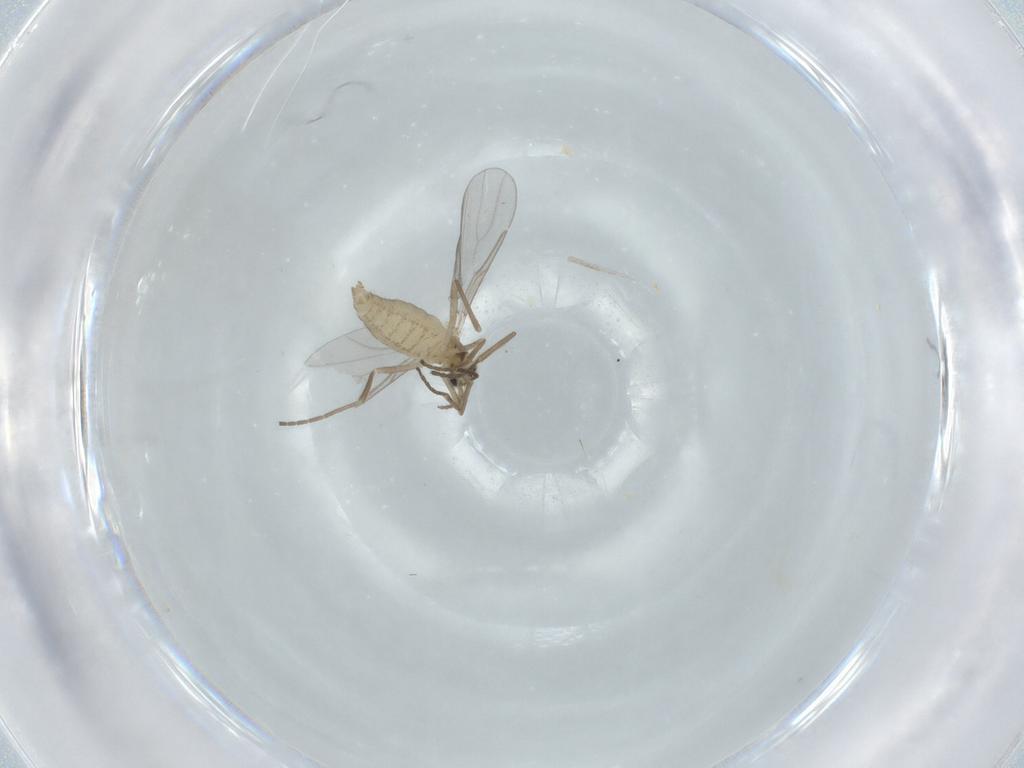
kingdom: Animalia
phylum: Arthropoda
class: Insecta
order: Diptera
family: Cecidomyiidae
